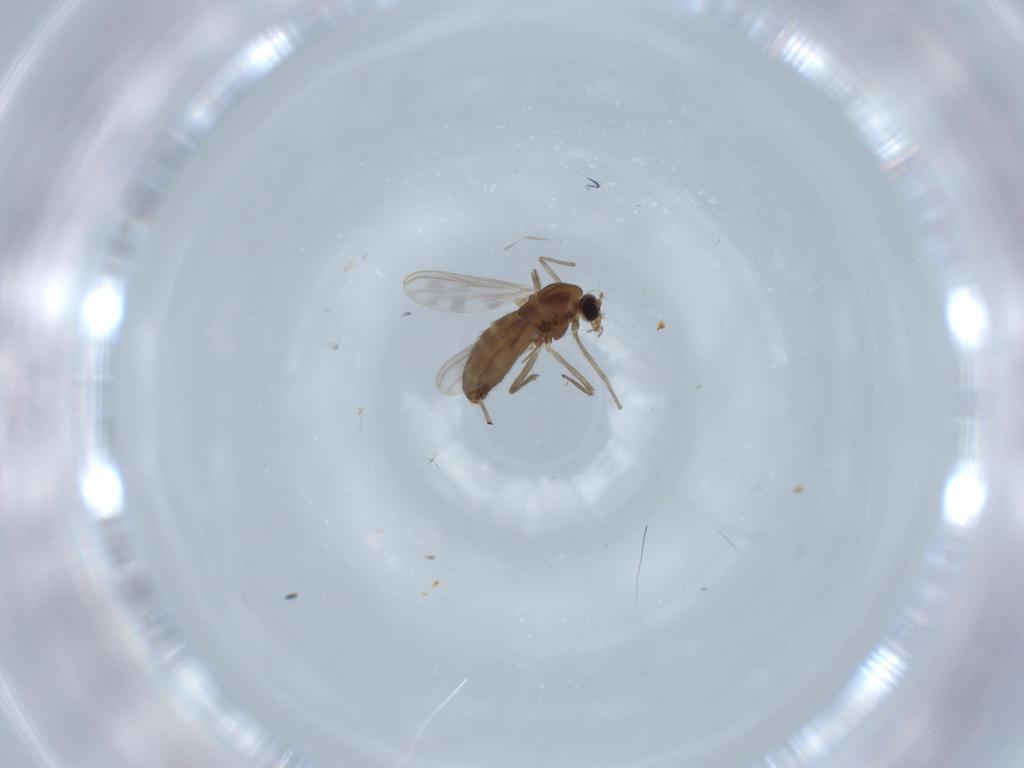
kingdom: Animalia
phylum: Arthropoda
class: Insecta
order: Diptera
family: Chironomidae
